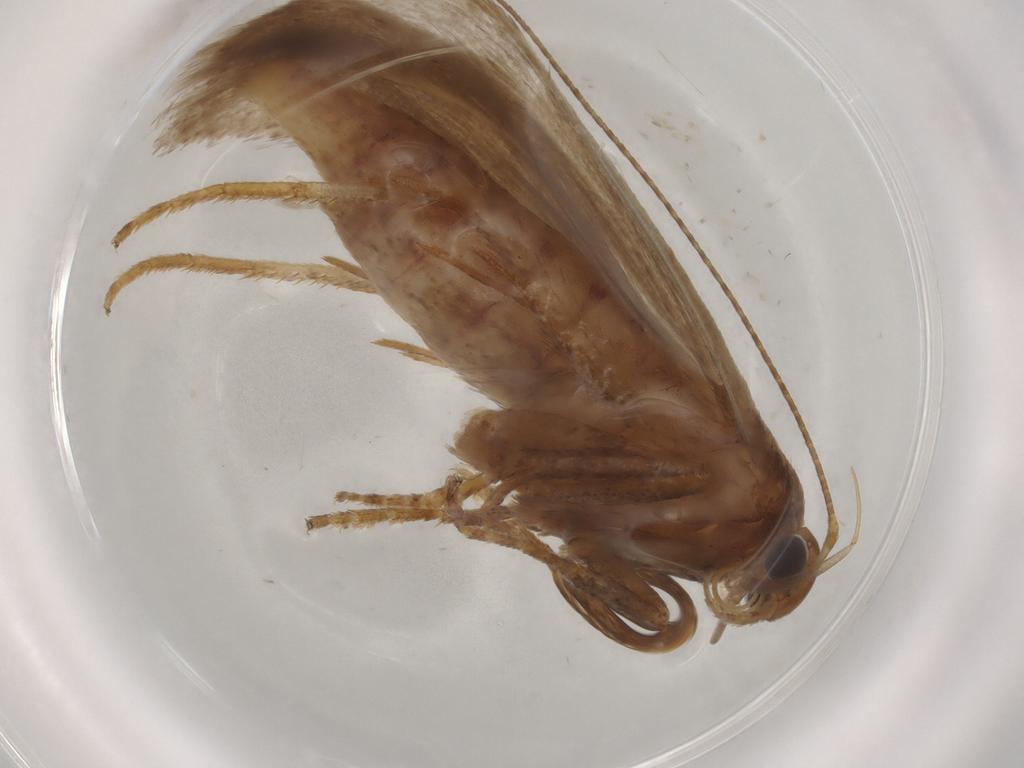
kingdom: Animalia
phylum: Arthropoda
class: Insecta
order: Lepidoptera
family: Erebidae
